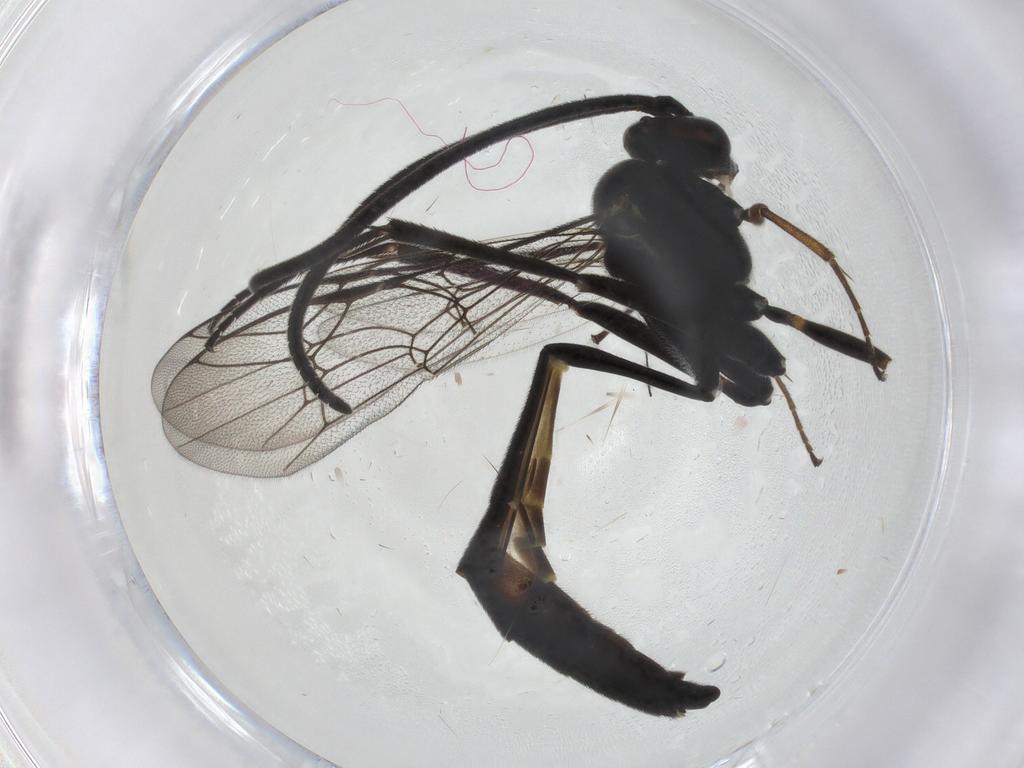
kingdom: Animalia
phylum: Arthropoda
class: Insecta
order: Hymenoptera
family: Ichneumonidae
